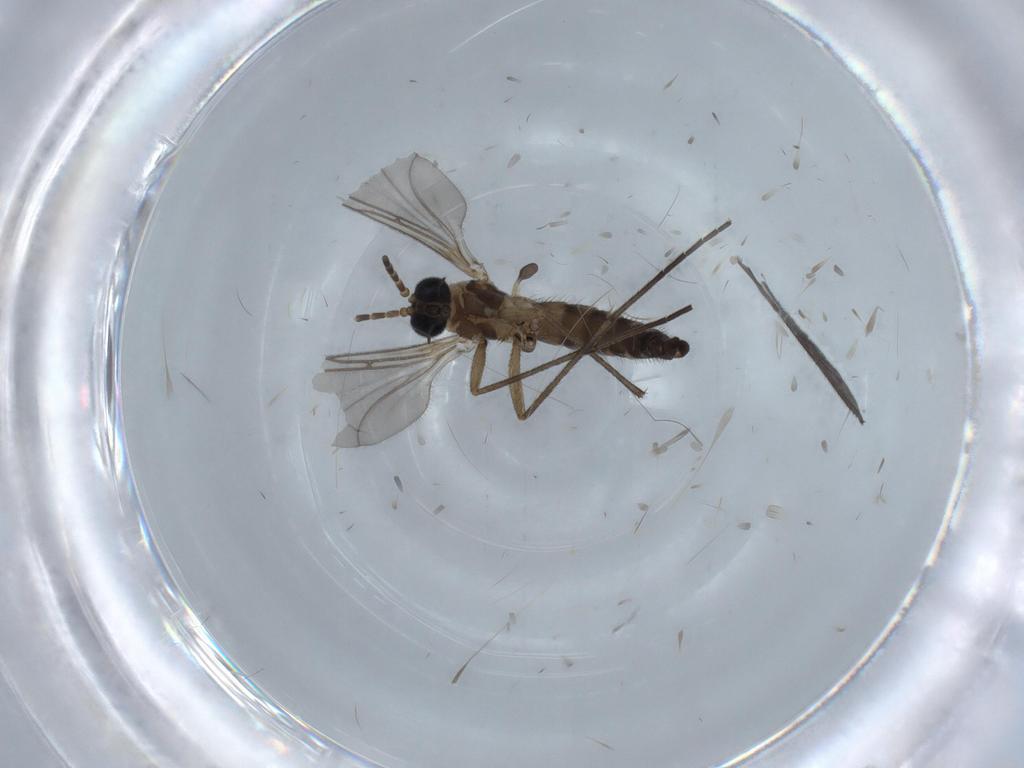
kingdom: Animalia
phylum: Arthropoda
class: Insecta
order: Diptera
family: Sciaridae
